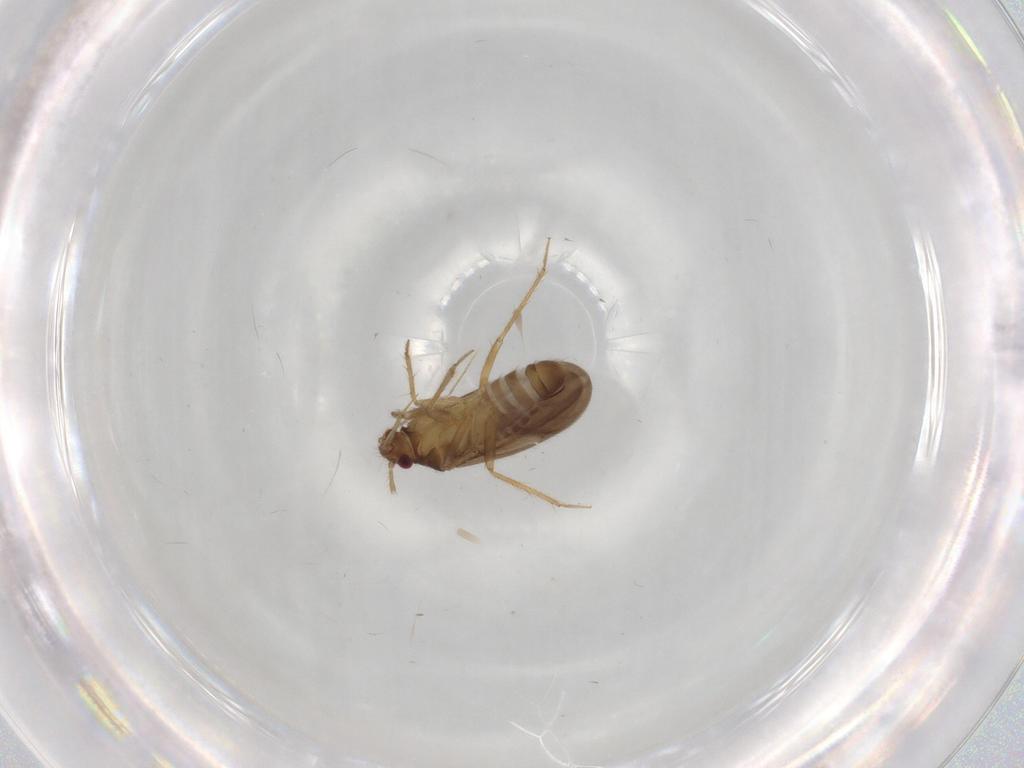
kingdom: Animalia
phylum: Arthropoda
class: Insecta
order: Hemiptera
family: Ceratocombidae
